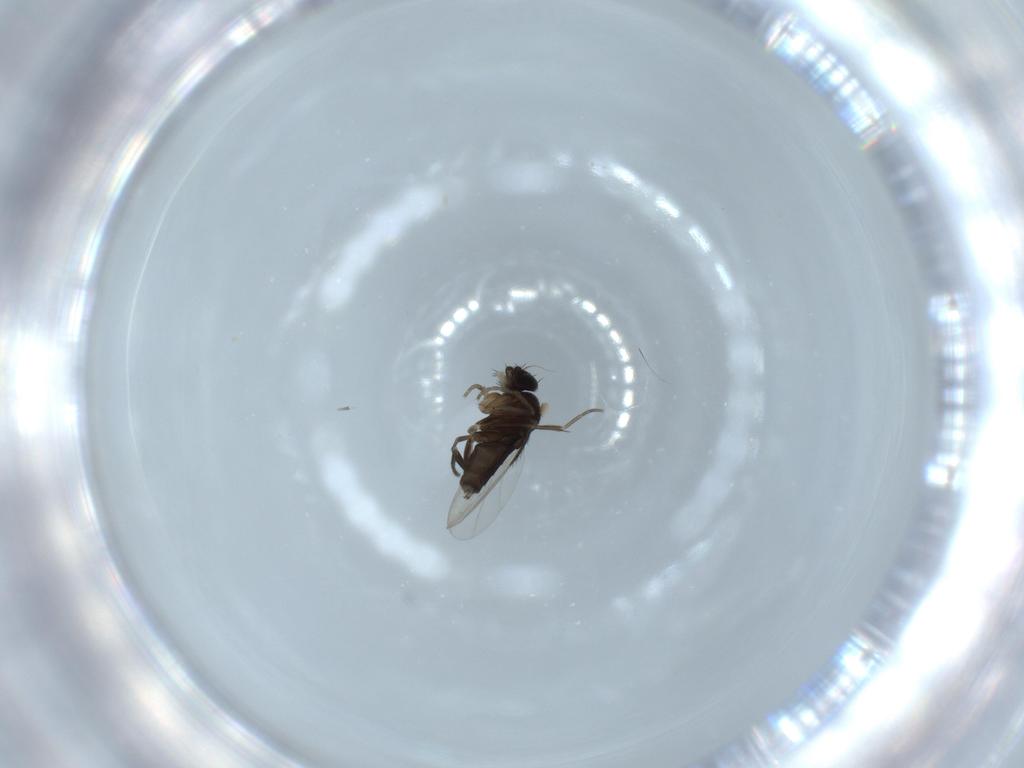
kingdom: Animalia
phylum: Arthropoda
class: Insecta
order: Diptera
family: Phoridae
